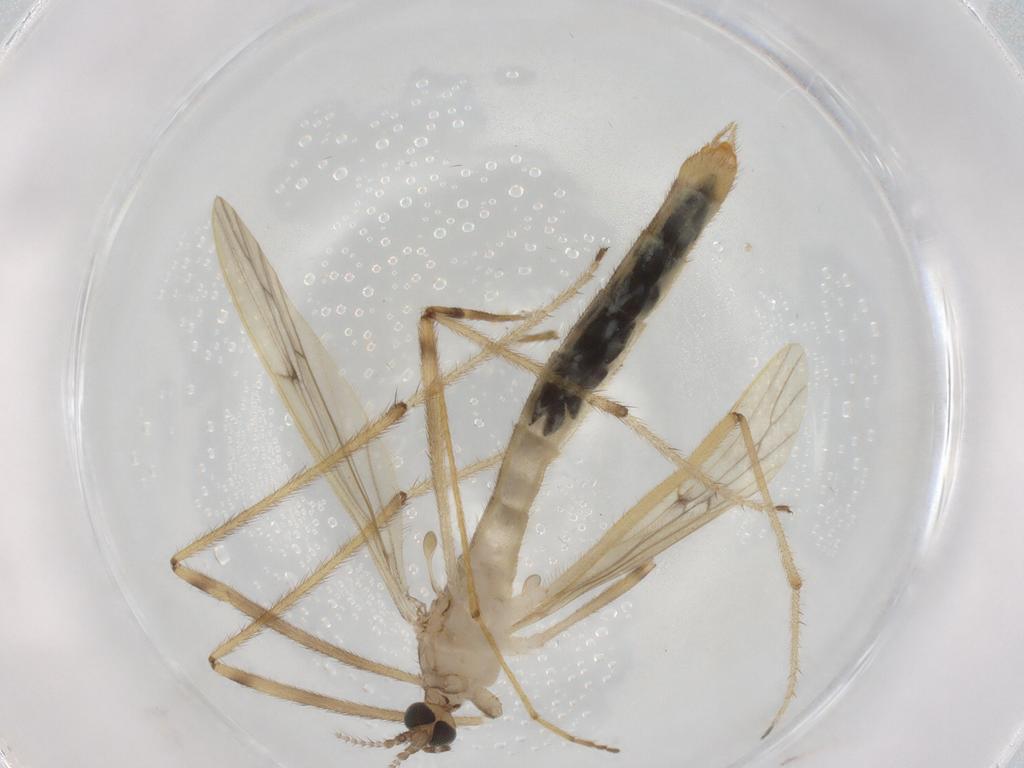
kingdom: Animalia
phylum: Arthropoda
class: Insecta
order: Diptera
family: Limoniidae
